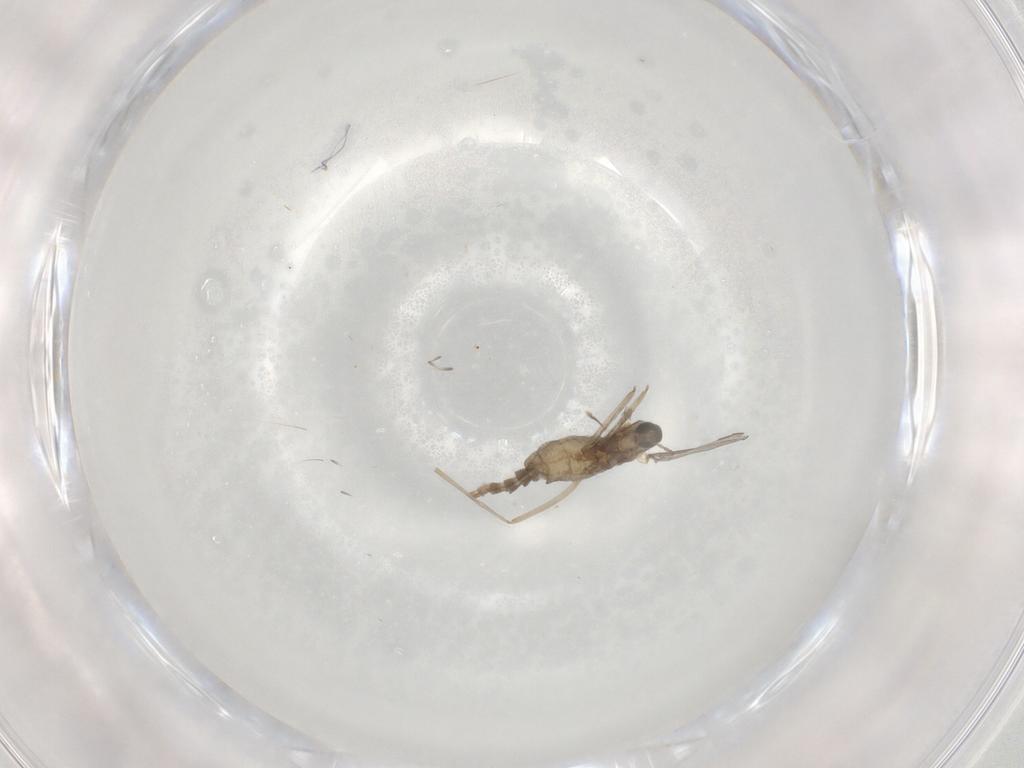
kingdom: Animalia
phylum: Arthropoda
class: Insecta
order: Diptera
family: Cecidomyiidae
